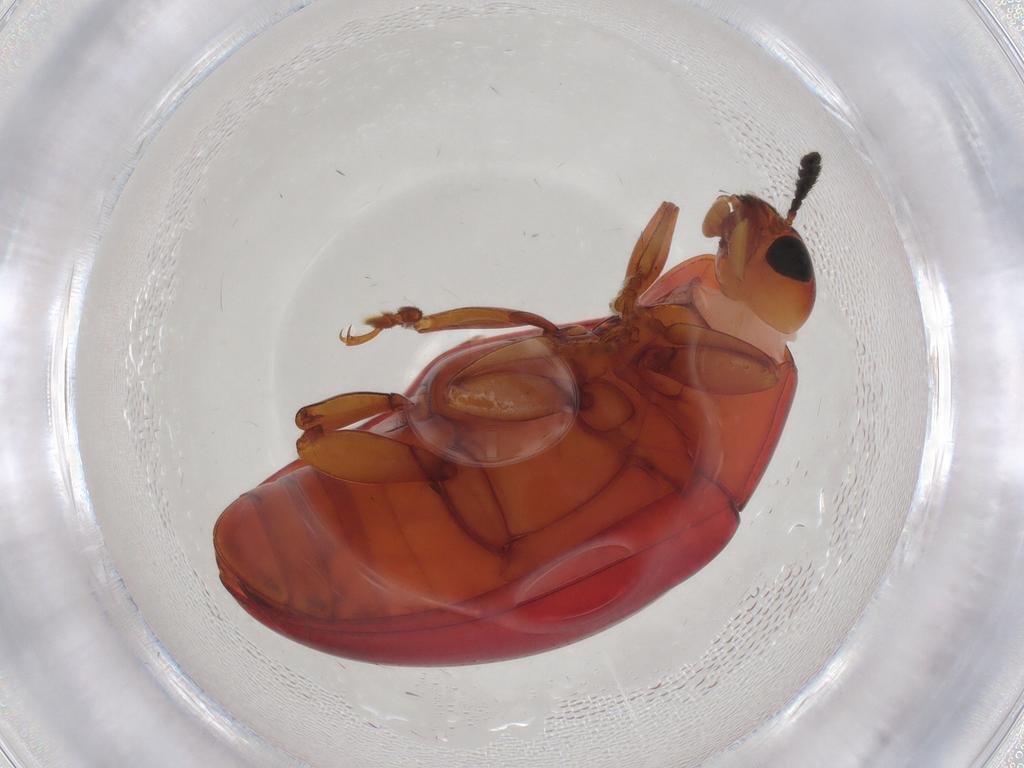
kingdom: Animalia
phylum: Arthropoda
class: Insecta
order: Coleoptera
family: Erotylidae
